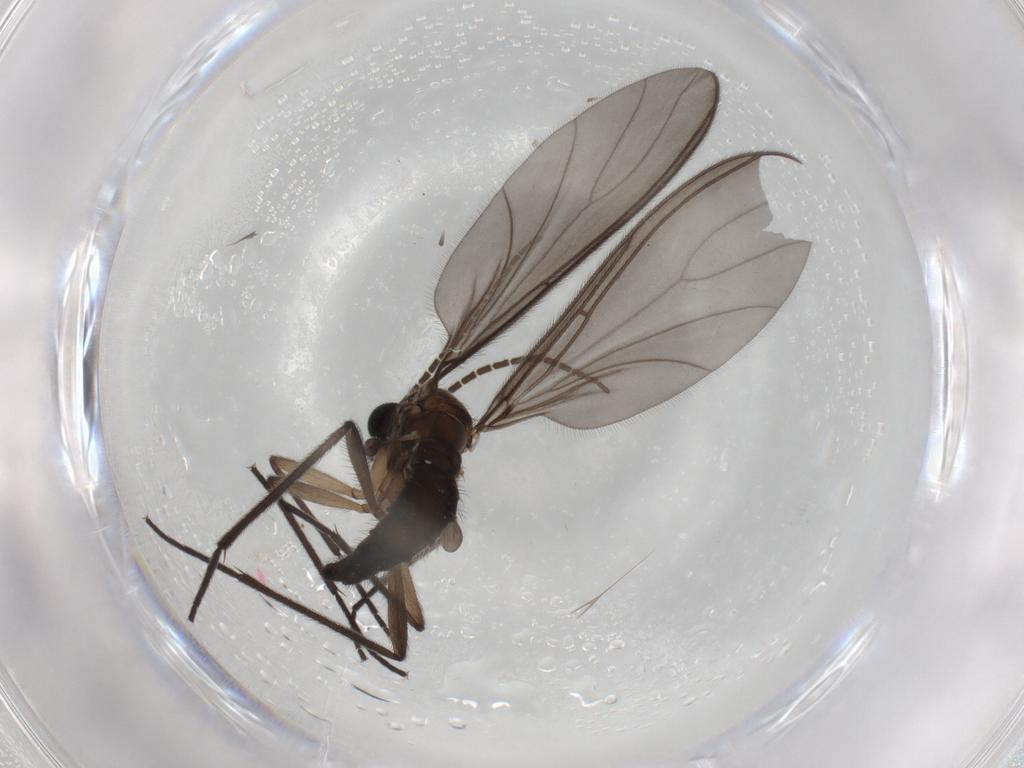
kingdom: Animalia
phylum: Arthropoda
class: Insecta
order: Diptera
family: Sciaridae
